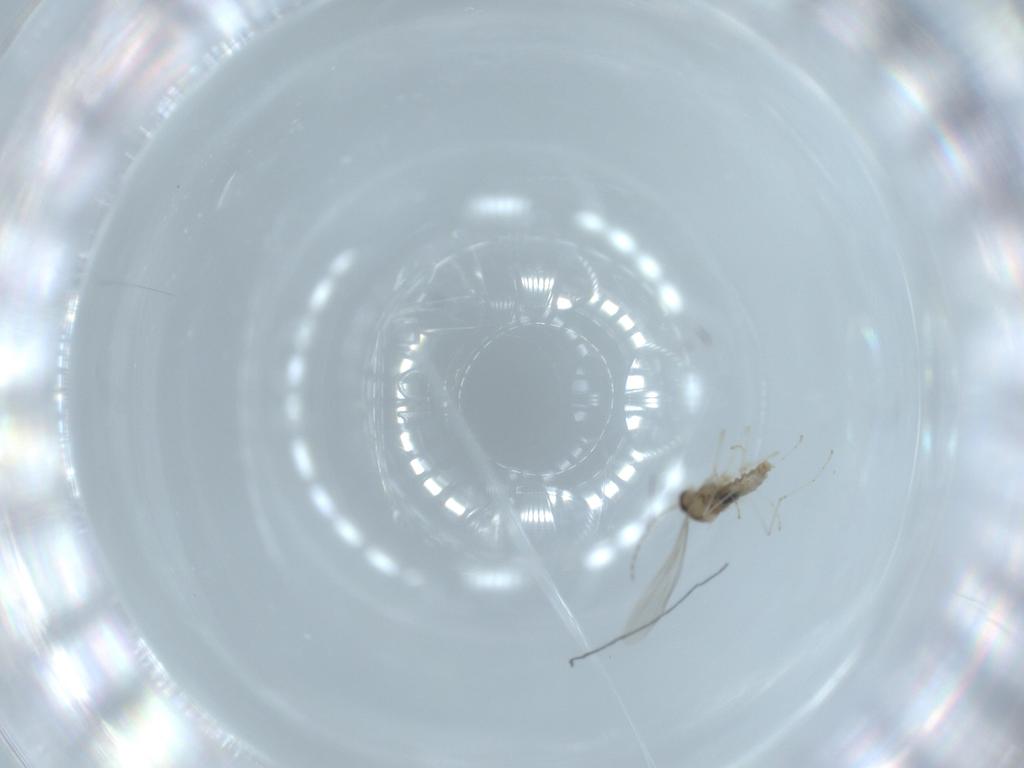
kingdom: Animalia
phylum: Arthropoda
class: Insecta
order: Diptera
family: Cecidomyiidae
